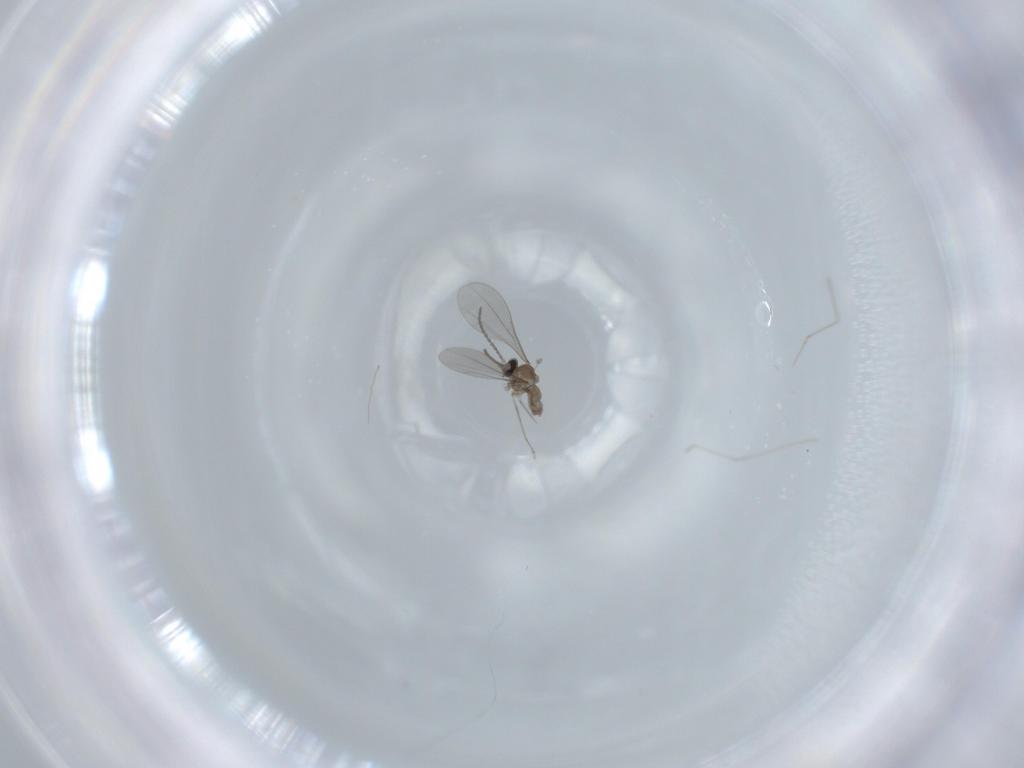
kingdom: Animalia
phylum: Arthropoda
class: Insecta
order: Diptera
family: Cecidomyiidae
